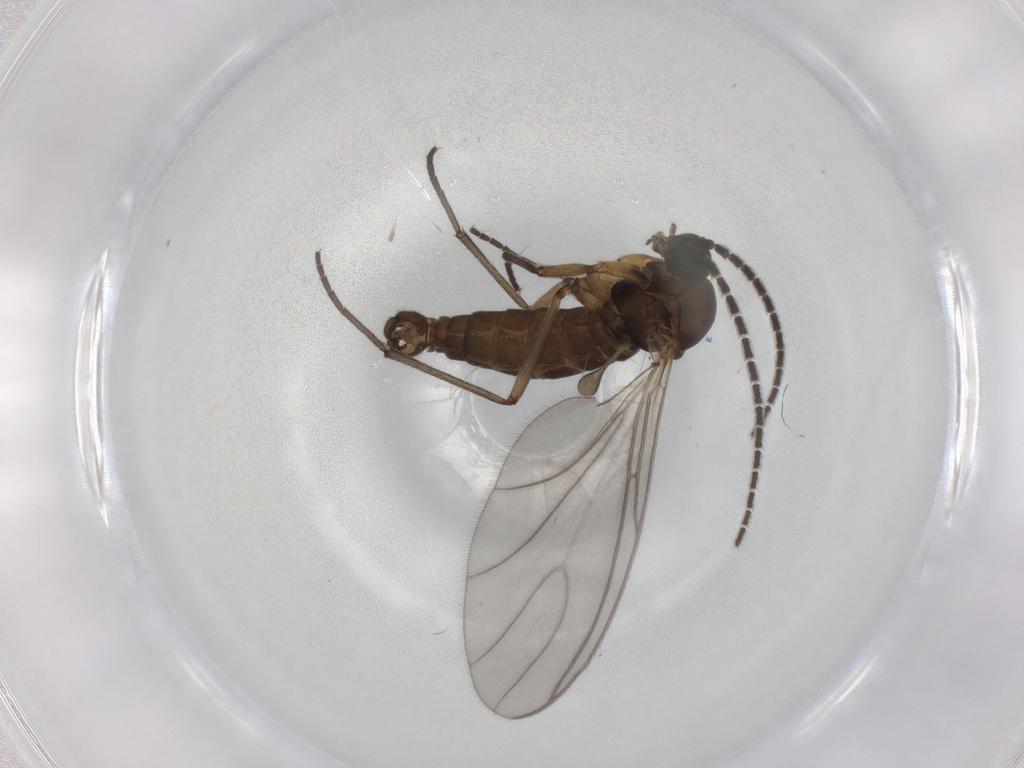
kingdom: Animalia
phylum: Arthropoda
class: Insecta
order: Diptera
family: Sciaridae
